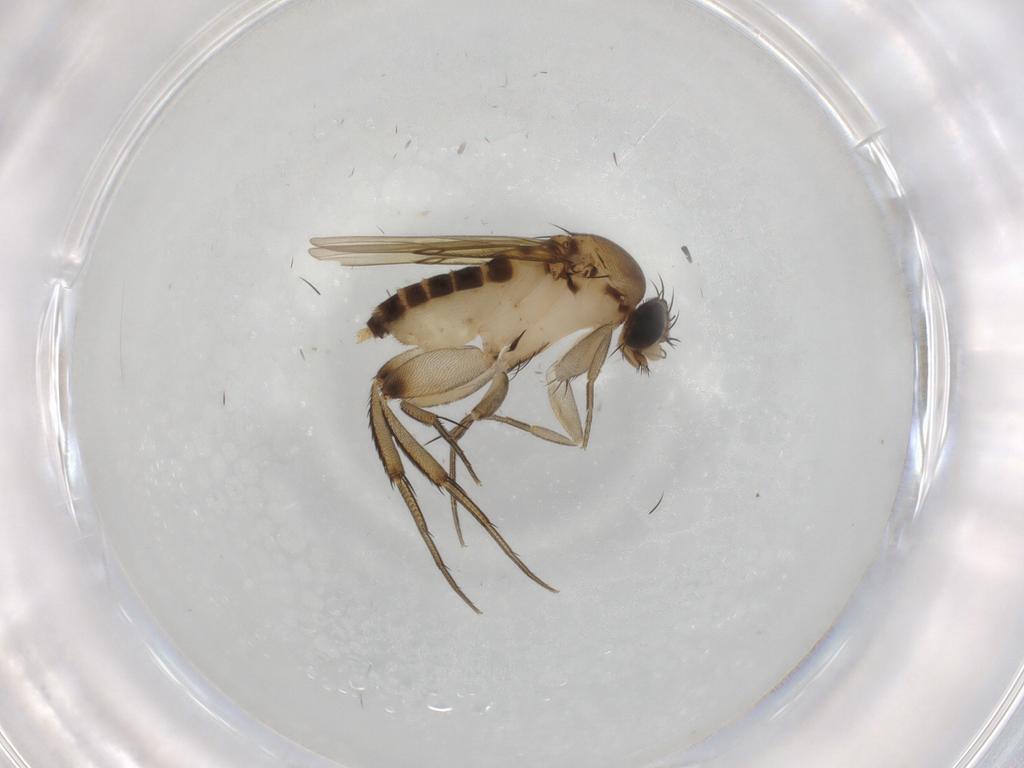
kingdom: Animalia
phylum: Arthropoda
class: Insecta
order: Diptera
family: Phoridae
